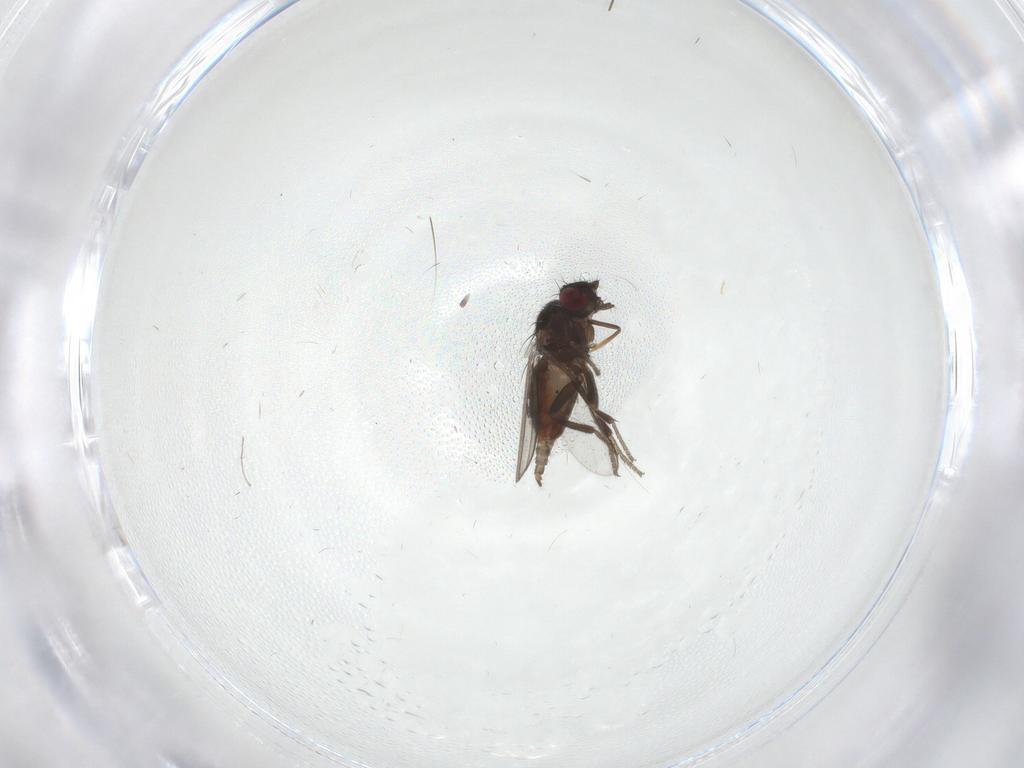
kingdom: Animalia
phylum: Arthropoda
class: Insecta
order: Diptera
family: Milichiidae
